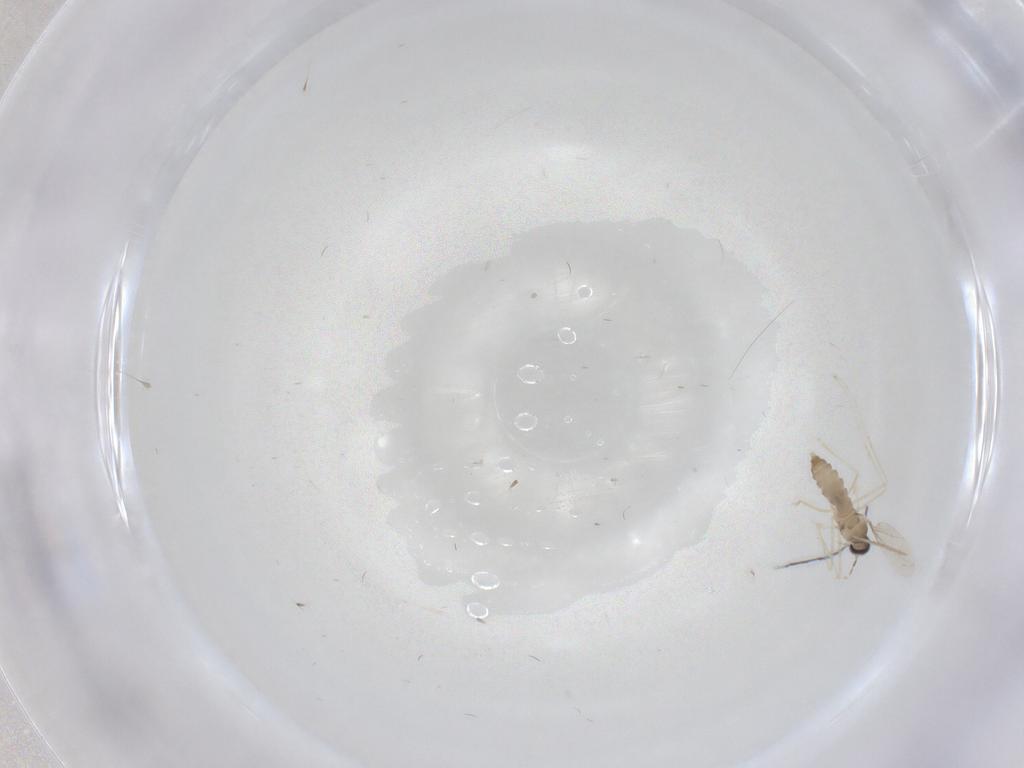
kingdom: Animalia
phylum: Arthropoda
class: Insecta
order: Diptera
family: Cecidomyiidae
